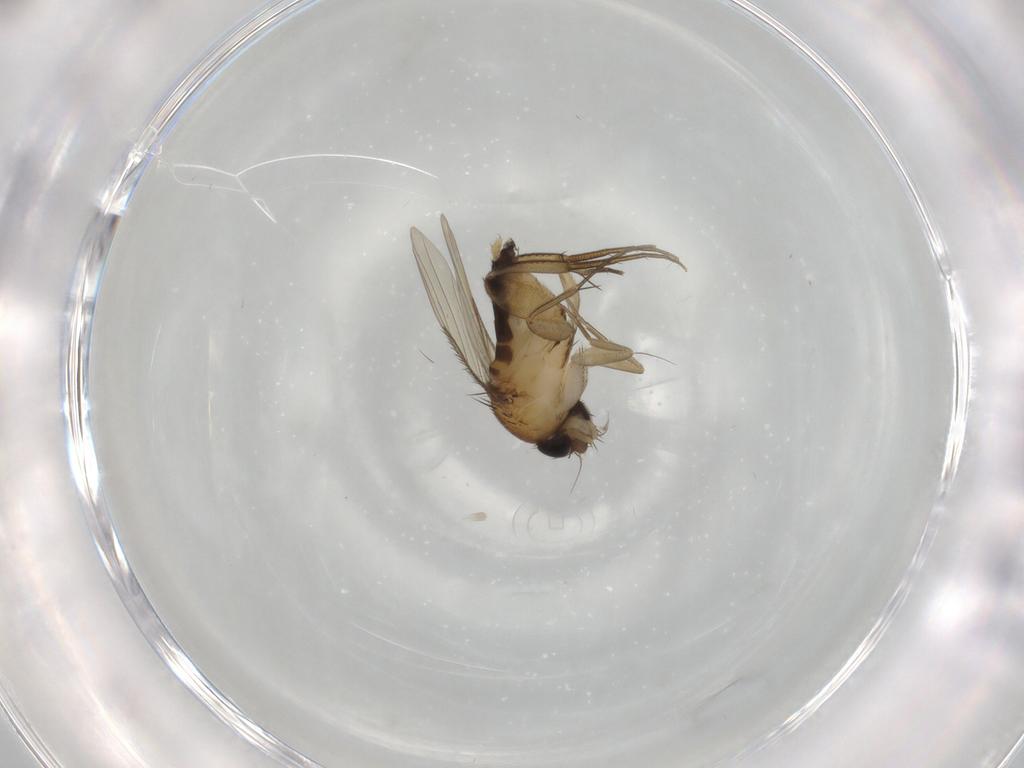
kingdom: Animalia
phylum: Arthropoda
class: Insecta
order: Diptera
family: Phoridae
